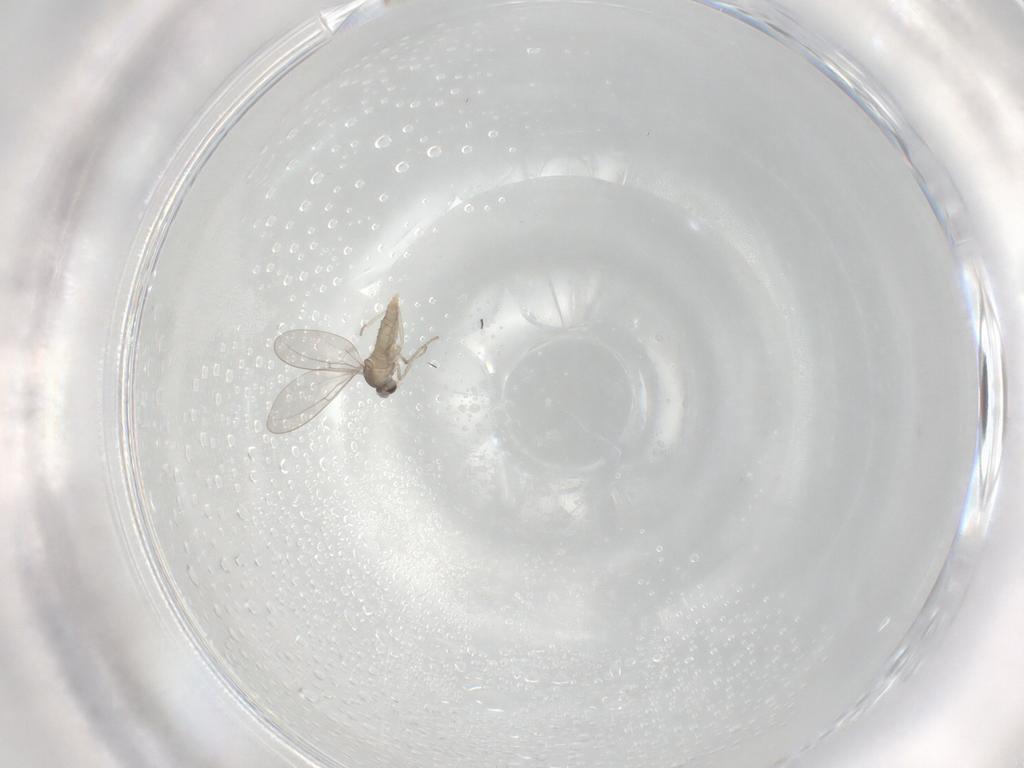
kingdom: Animalia
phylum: Arthropoda
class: Insecta
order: Diptera
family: Cecidomyiidae
